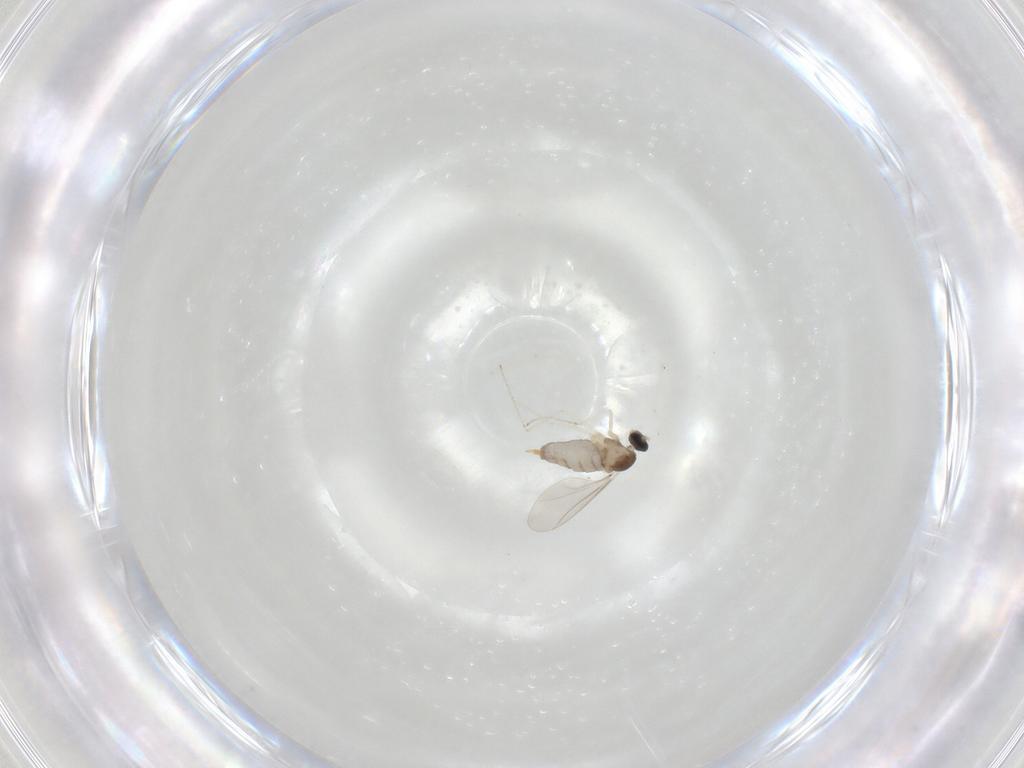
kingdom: Animalia
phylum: Arthropoda
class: Insecta
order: Diptera
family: Cecidomyiidae
